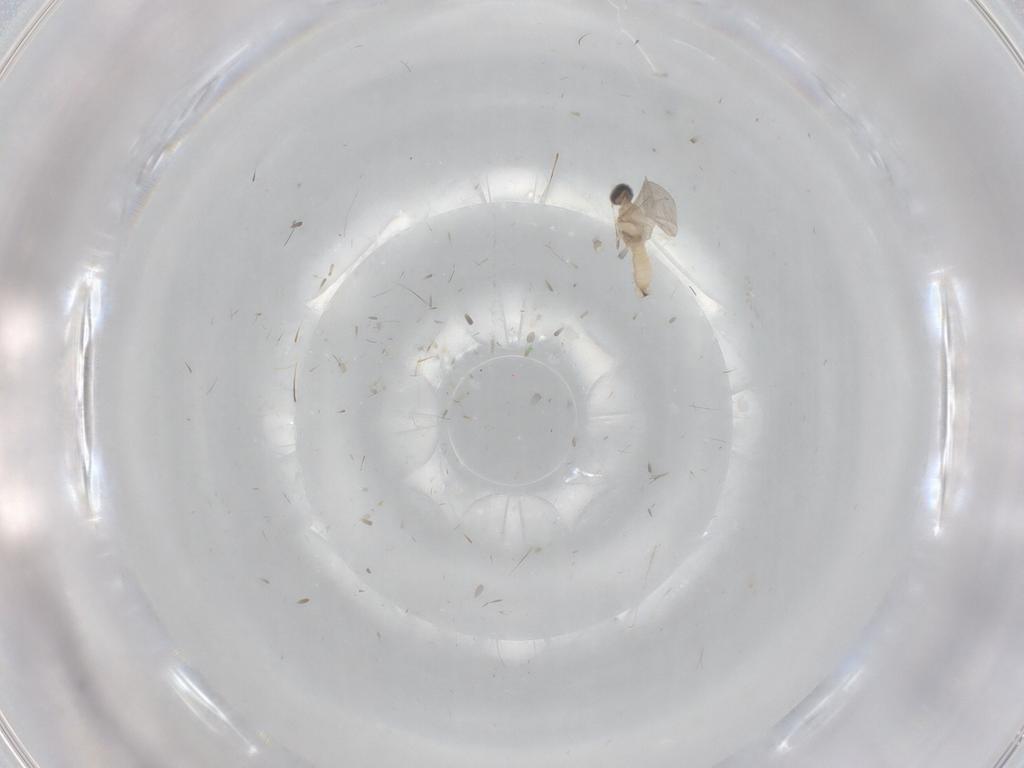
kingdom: Animalia
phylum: Arthropoda
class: Insecta
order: Diptera
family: Cecidomyiidae
